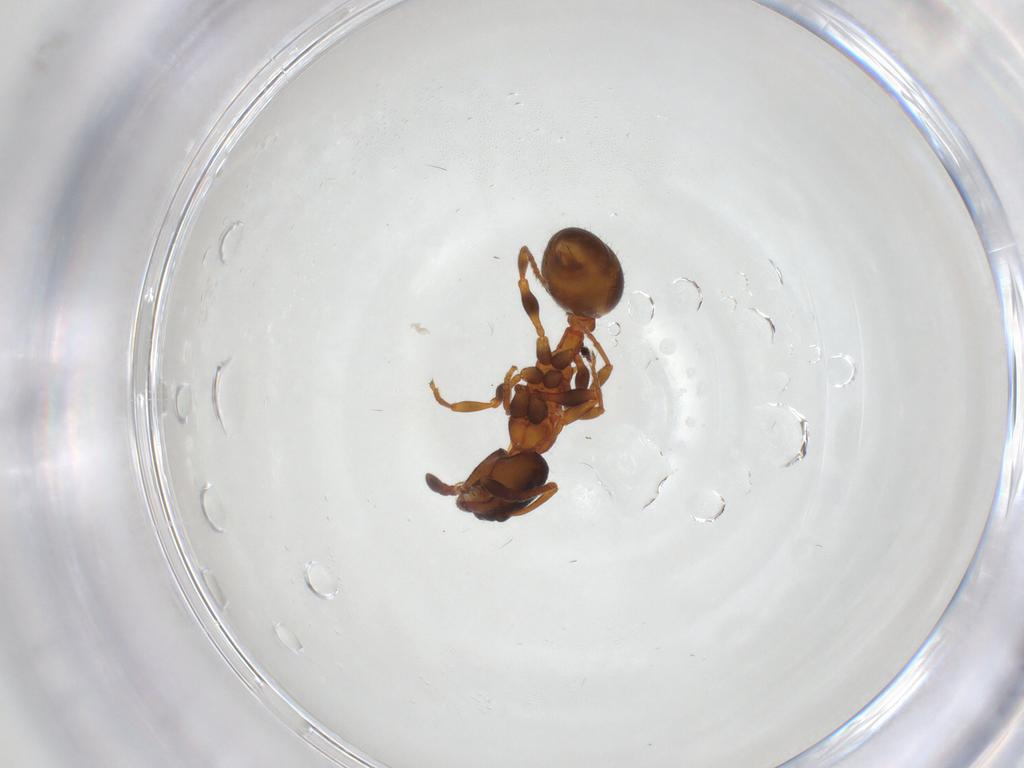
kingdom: Animalia
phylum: Arthropoda
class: Insecta
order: Hymenoptera
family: Formicidae
